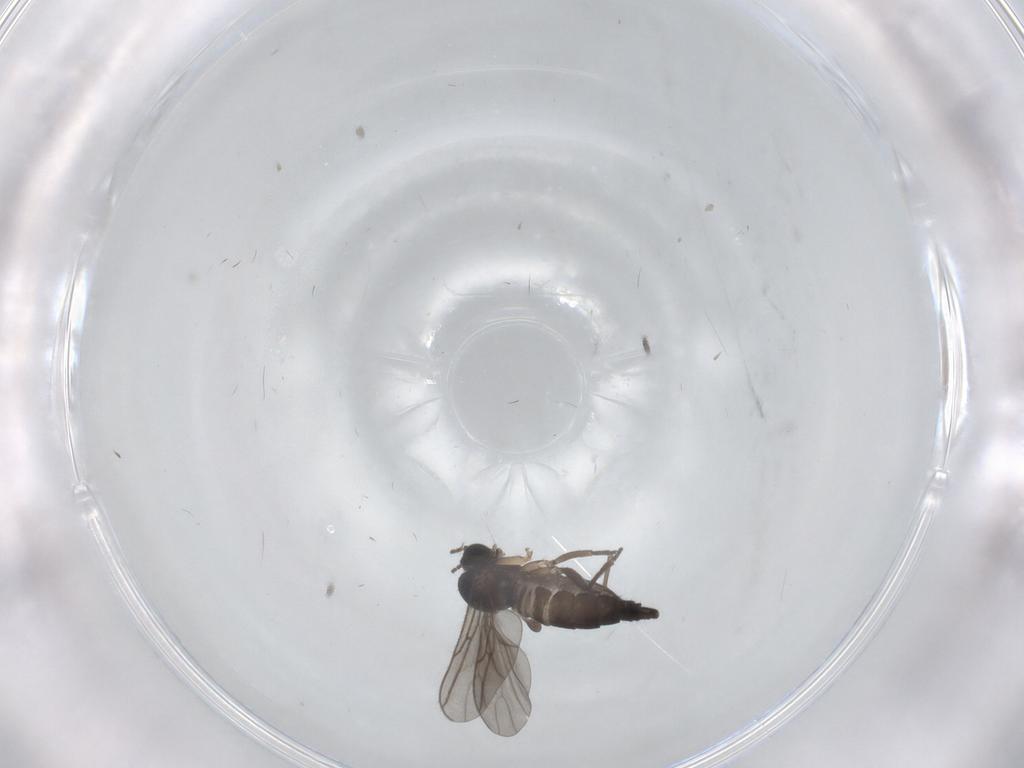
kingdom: Animalia
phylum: Arthropoda
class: Insecta
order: Diptera
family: Sciaridae
